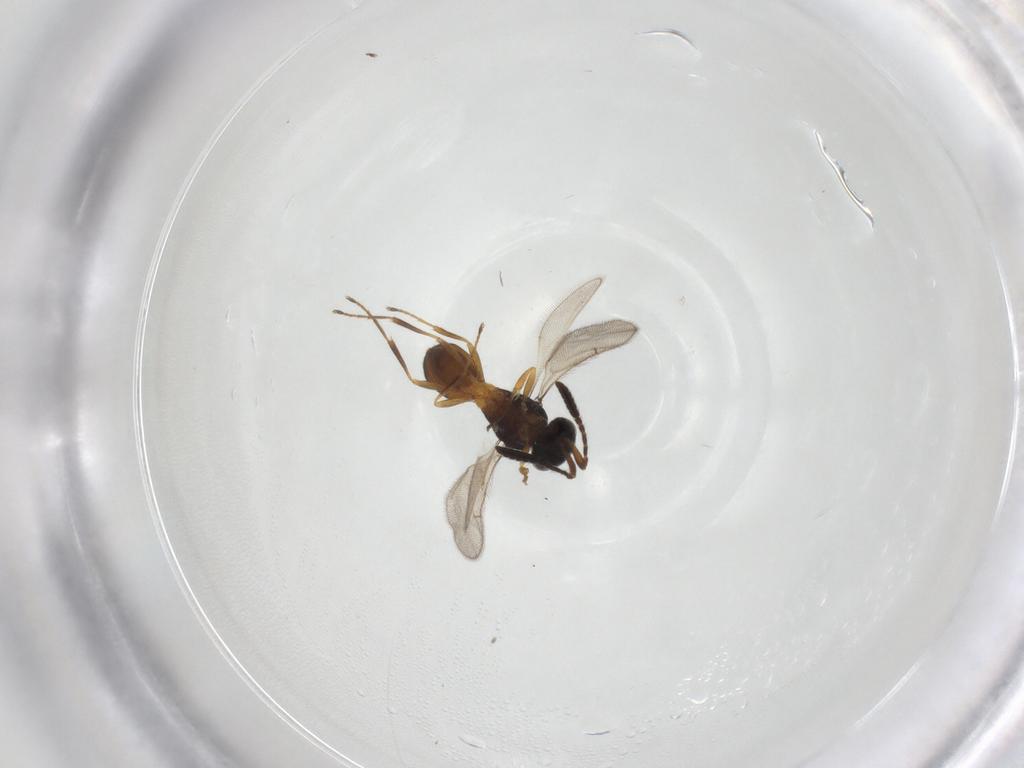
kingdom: Animalia
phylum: Arthropoda
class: Insecta
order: Hymenoptera
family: Scelionidae
